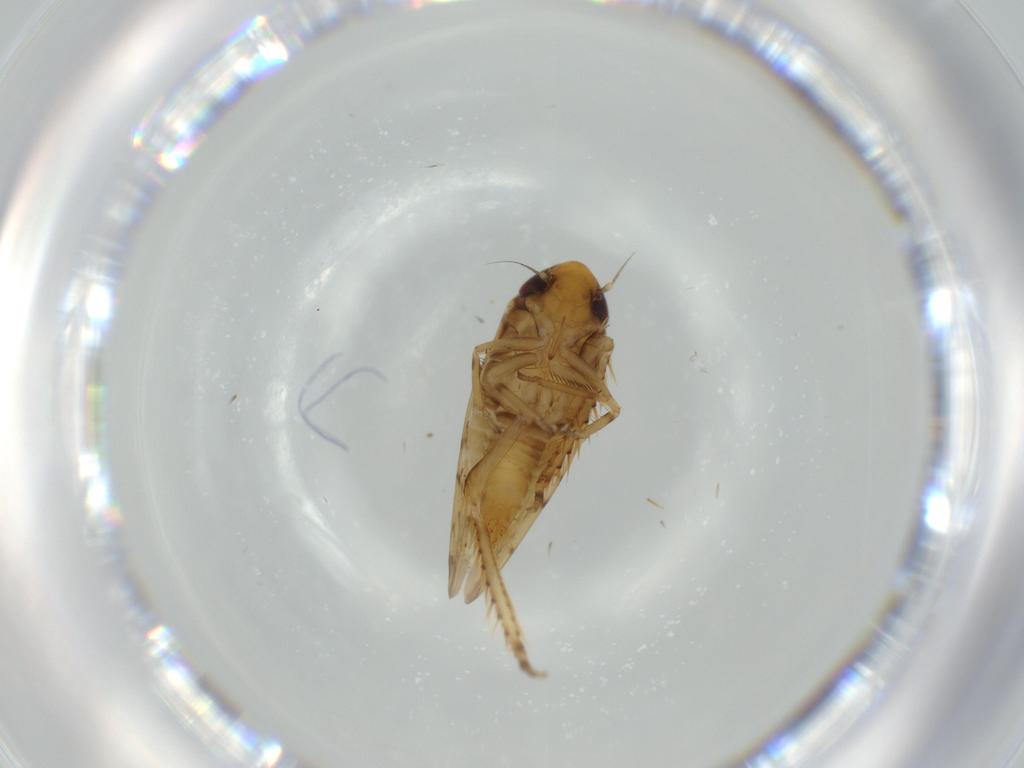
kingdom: Animalia
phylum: Arthropoda
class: Insecta
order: Hemiptera
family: Cicadellidae
